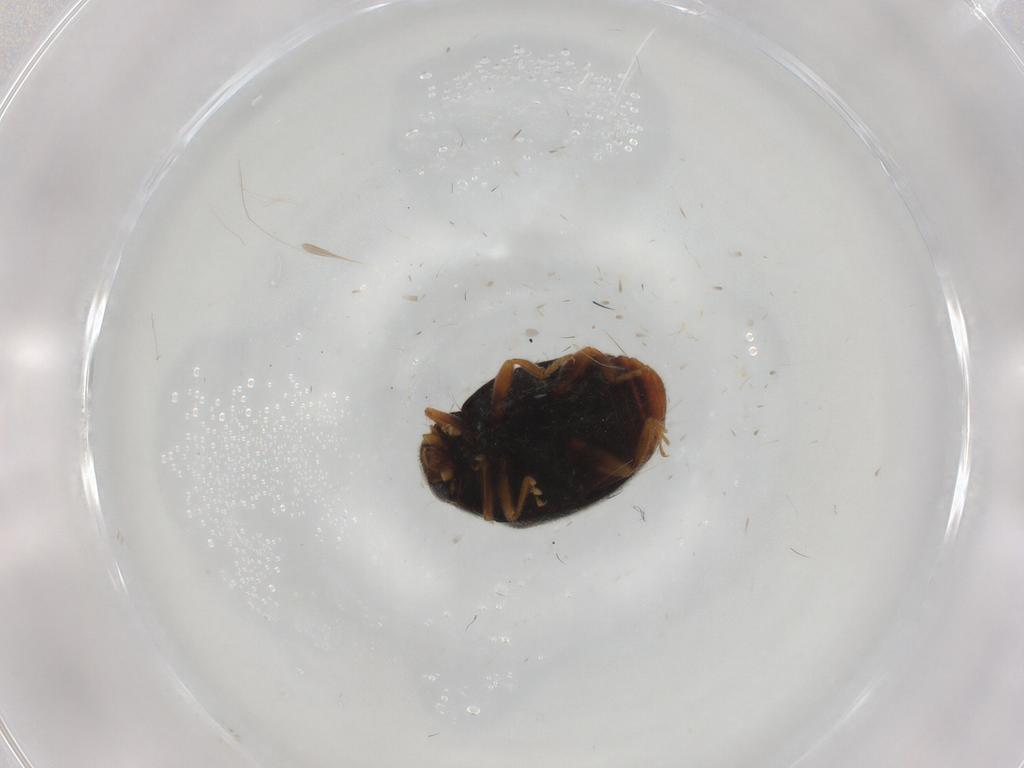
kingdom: Animalia
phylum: Arthropoda
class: Insecta
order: Coleoptera
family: Coccinellidae
